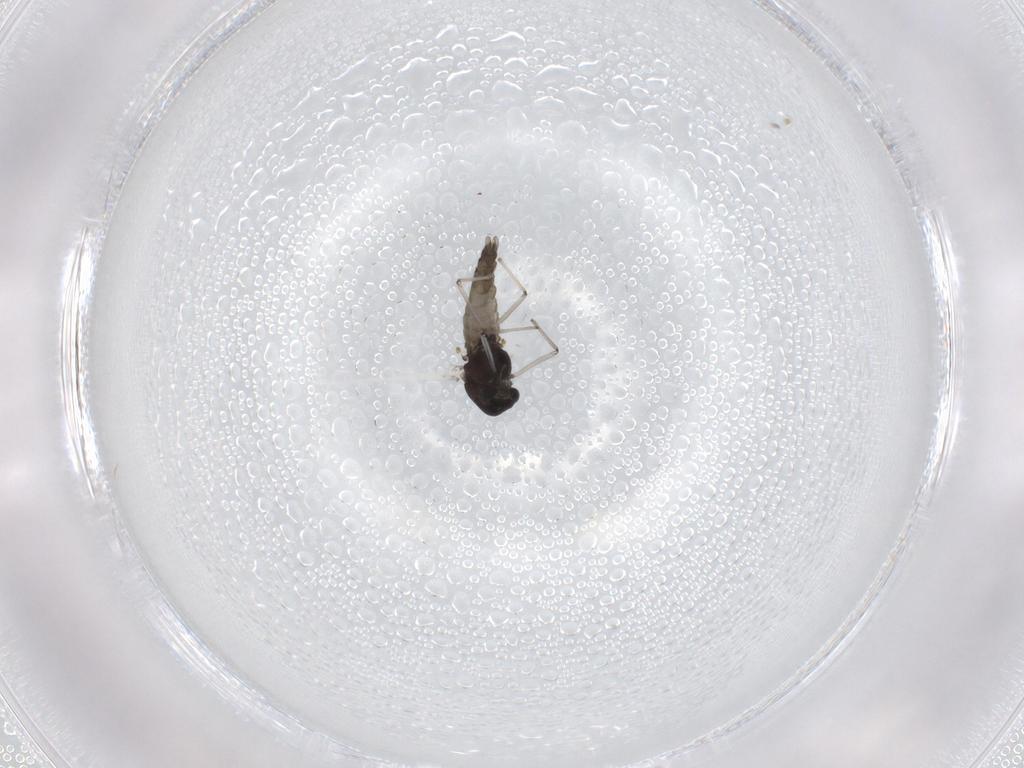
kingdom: Animalia
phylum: Arthropoda
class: Insecta
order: Diptera
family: Chironomidae
